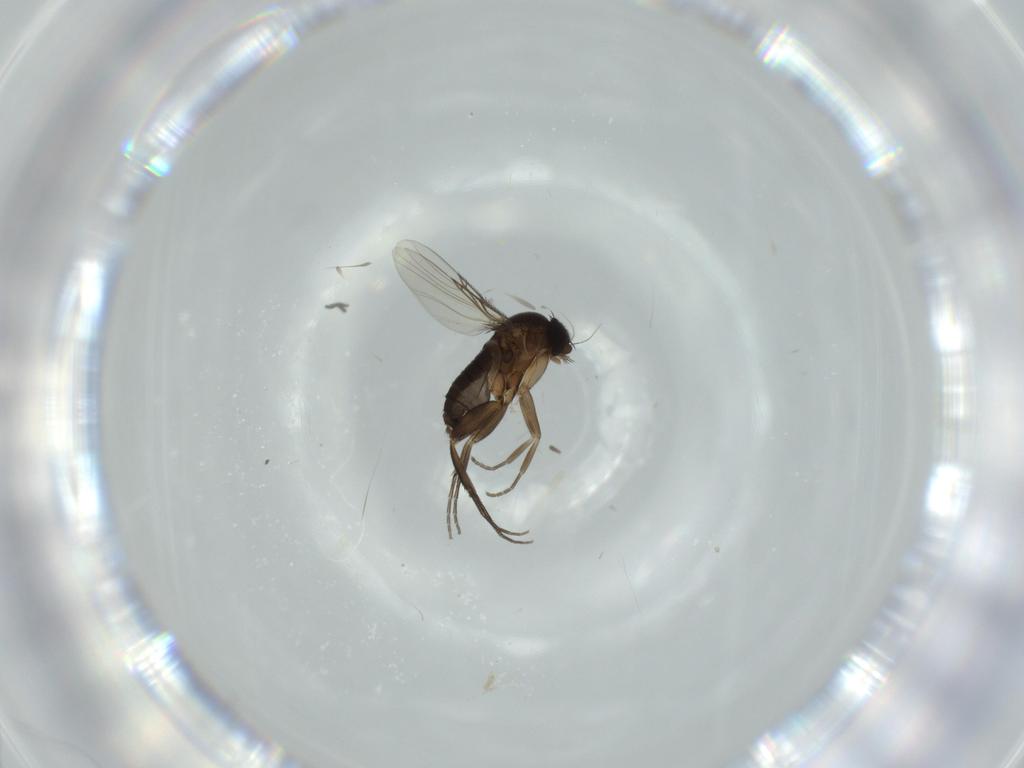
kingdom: Animalia
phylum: Arthropoda
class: Insecta
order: Diptera
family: Phoridae
